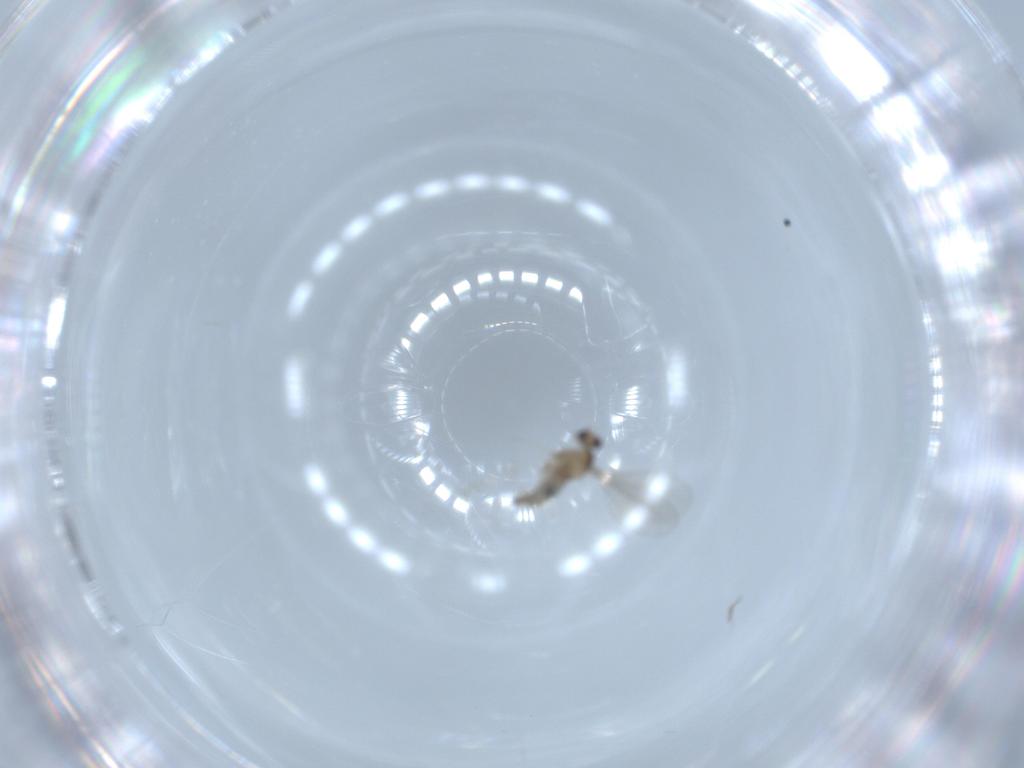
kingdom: Animalia
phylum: Arthropoda
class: Insecta
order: Diptera
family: Cecidomyiidae
